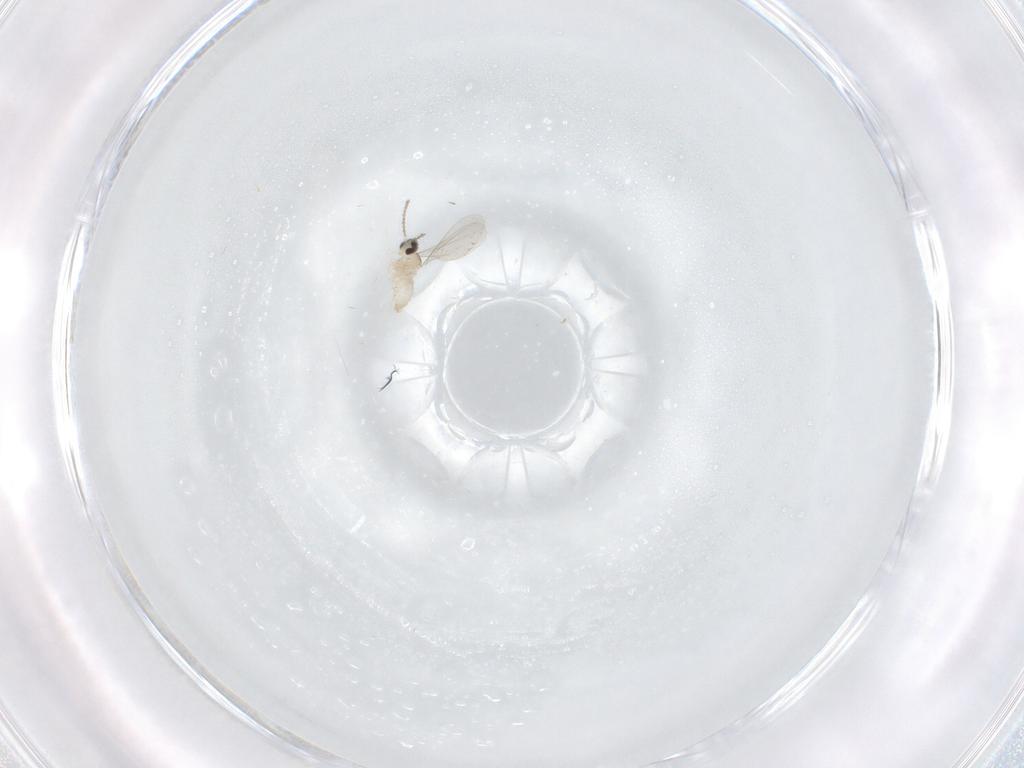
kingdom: Animalia
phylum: Arthropoda
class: Insecta
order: Diptera
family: Cecidomyiidae
